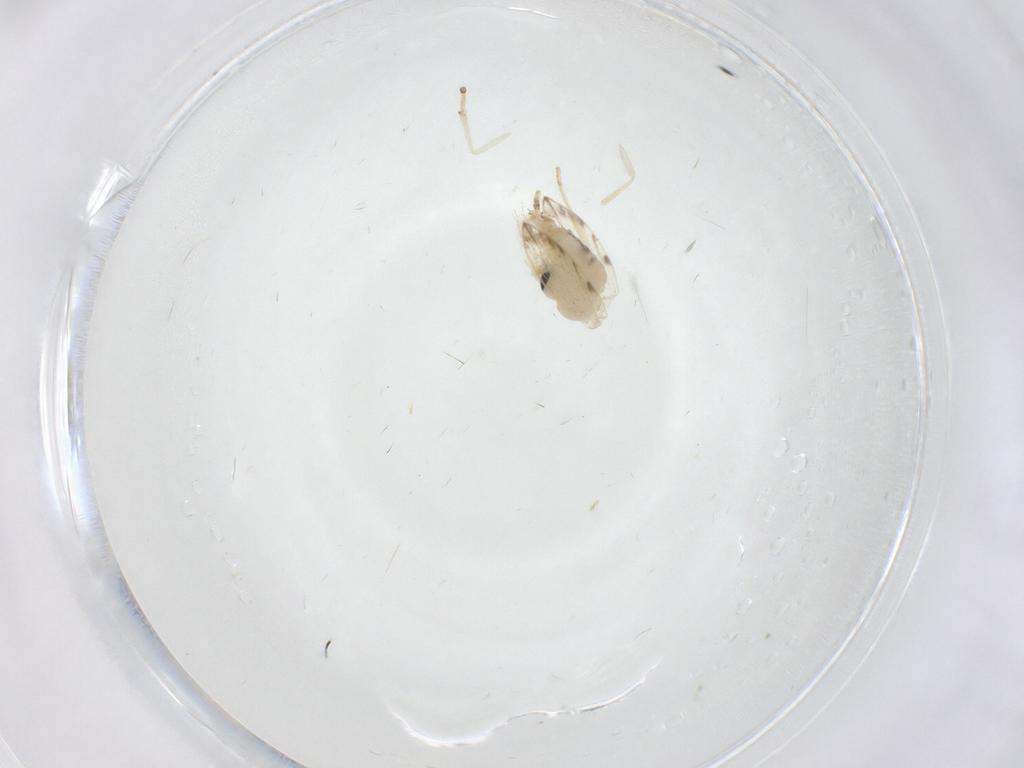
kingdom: Animalia
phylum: Arthropoda
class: Insecta
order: Diptera
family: Psychodidae
